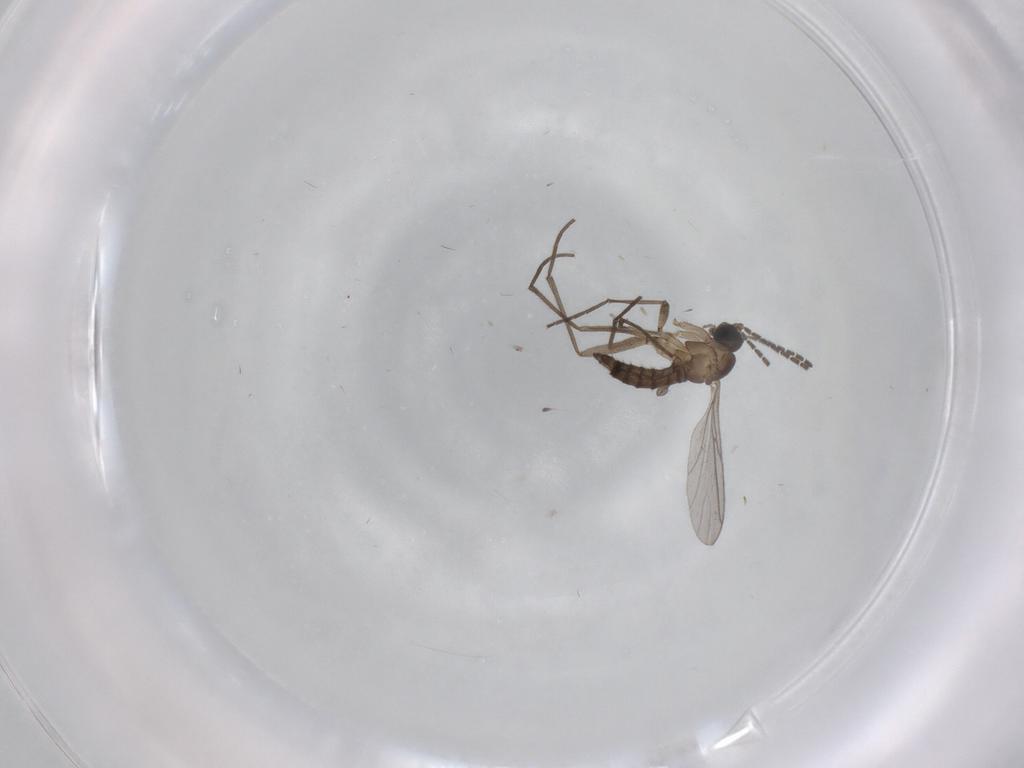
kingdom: Animalia
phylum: Arthropoda
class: Insecta
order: Diptera
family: Sciaridae
